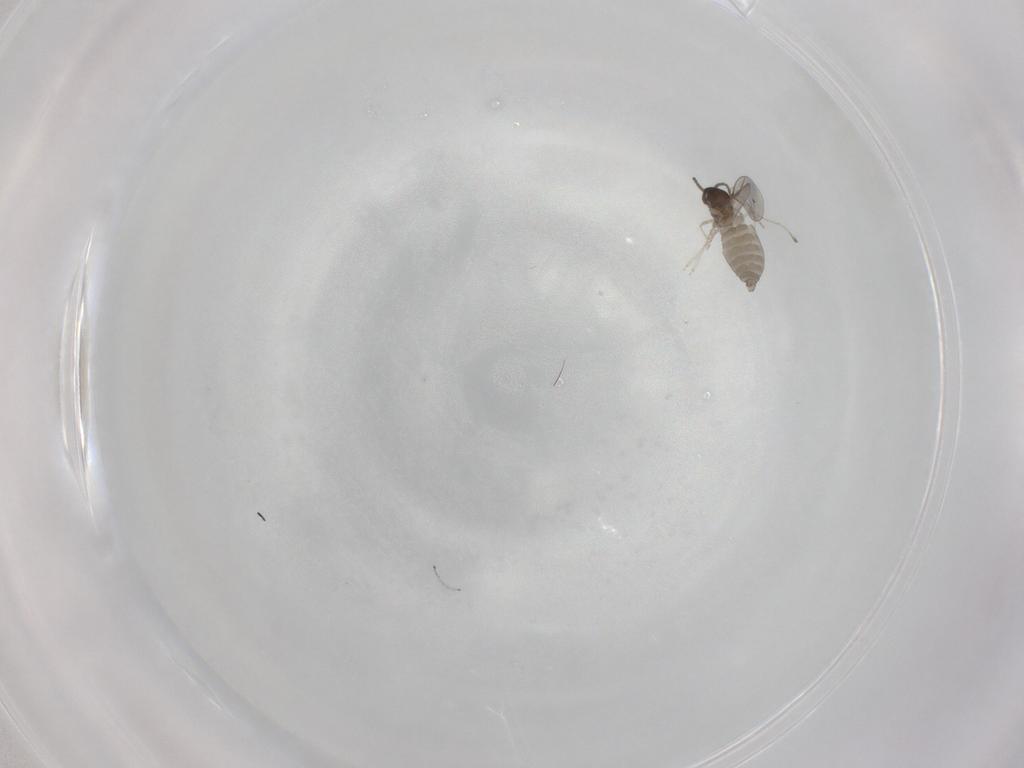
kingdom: Animalia
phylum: Arthropoda
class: Insecta
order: Diptera
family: Cecidomyiidae
